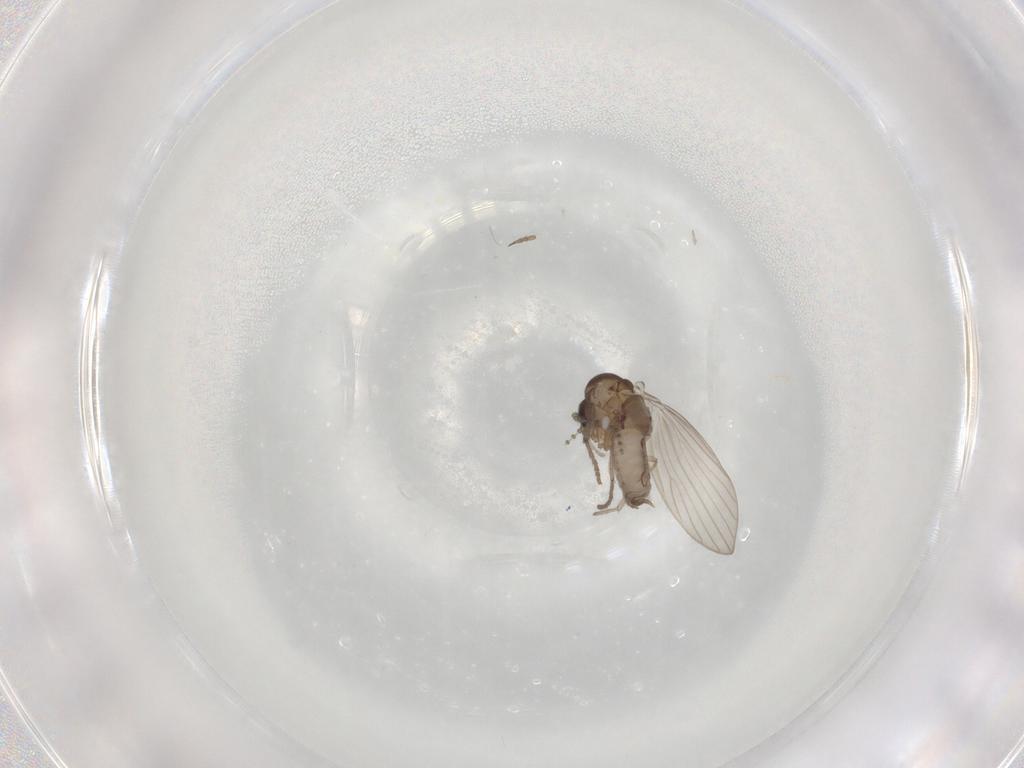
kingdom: Animalia
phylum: Arthropoda
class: Insecta
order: Diptera
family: Psychodidae
